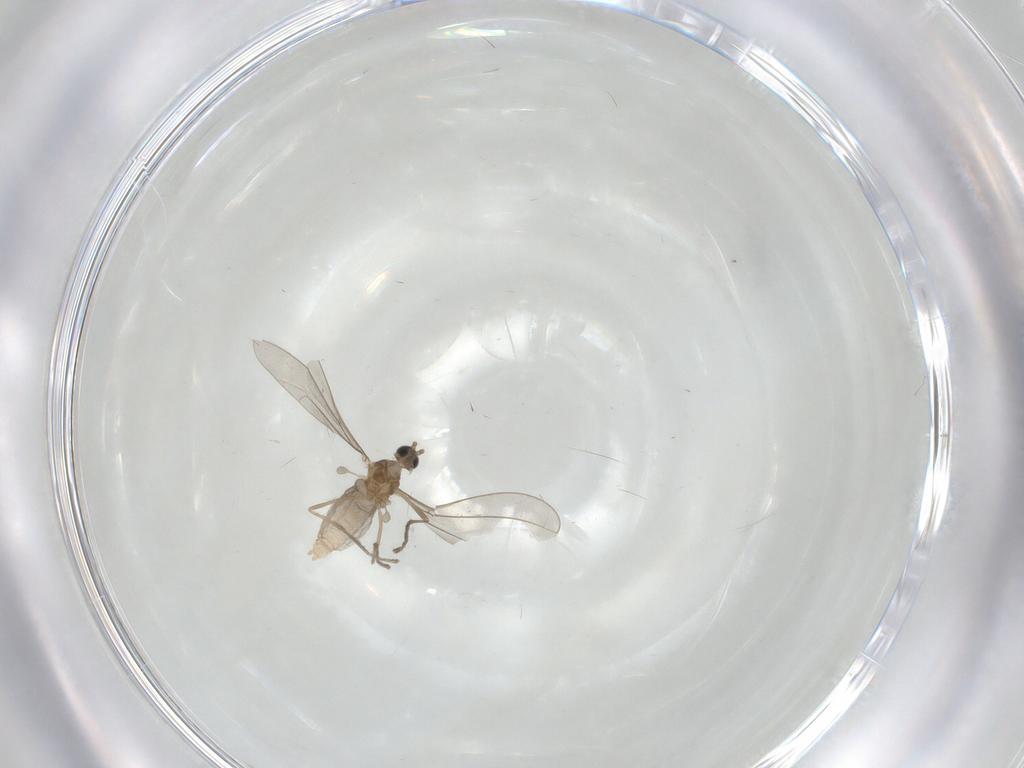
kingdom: Animalia
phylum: Arthropoda
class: Insecta
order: Diptera
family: Cecidomyiidae
